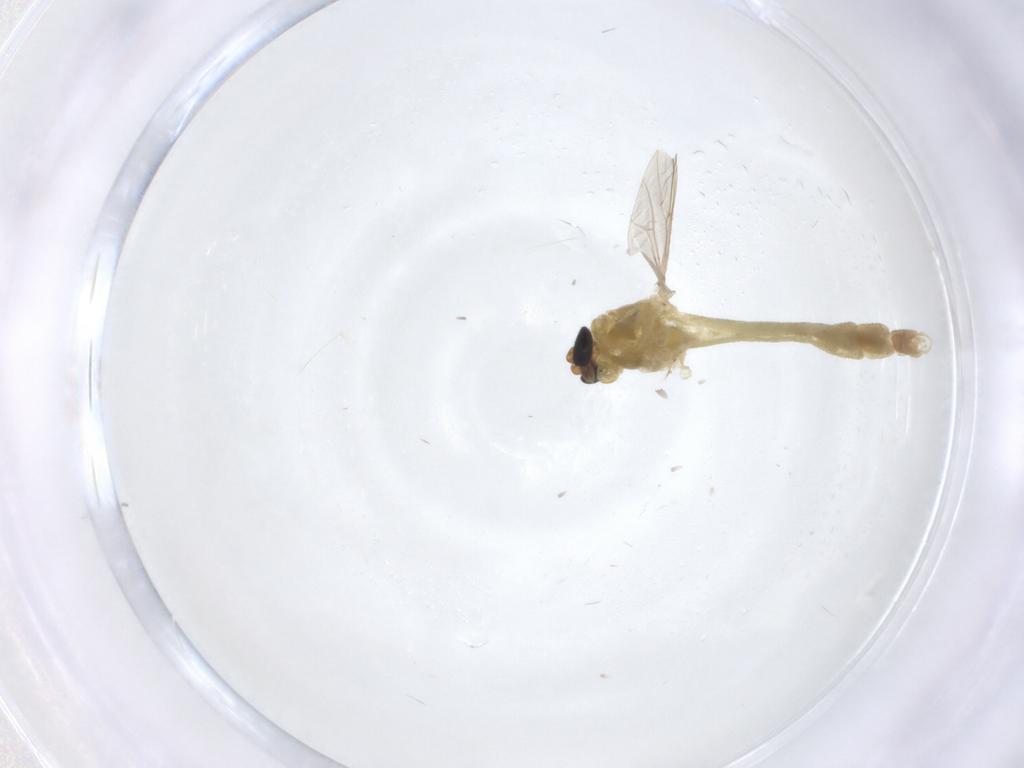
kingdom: Animalia
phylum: Arthropoda
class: Insecta
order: Diptera
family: Chironomidae
